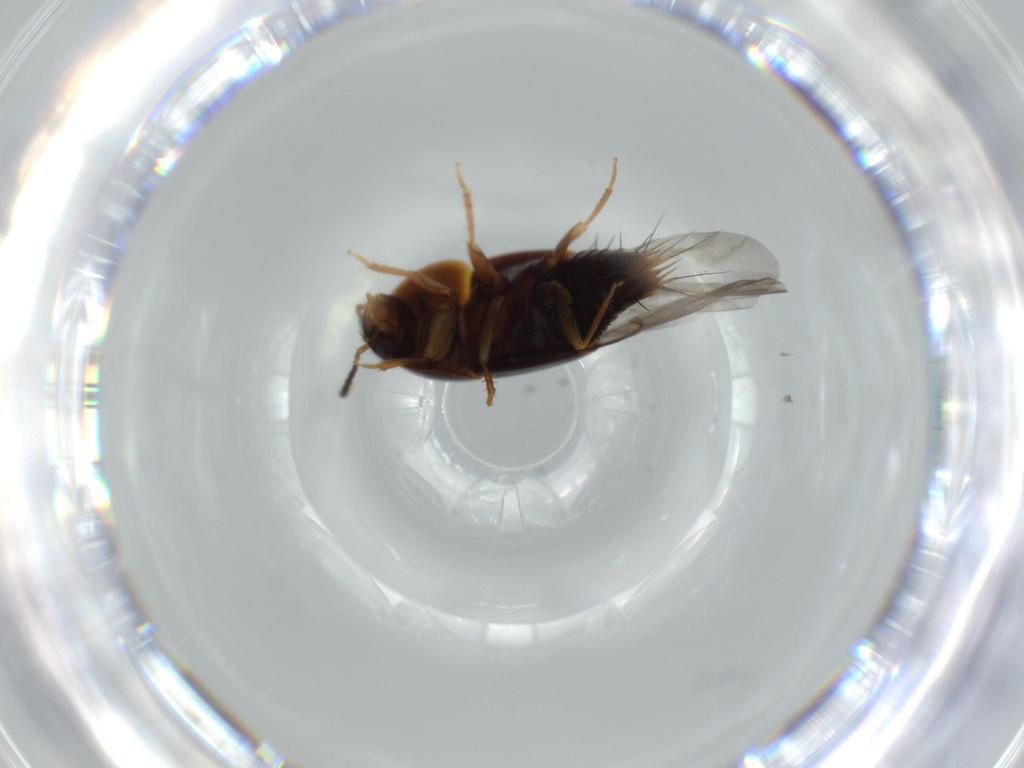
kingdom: Animalia
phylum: Arthropoda
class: Insecta
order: Coleoptera
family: Staphylinidae
